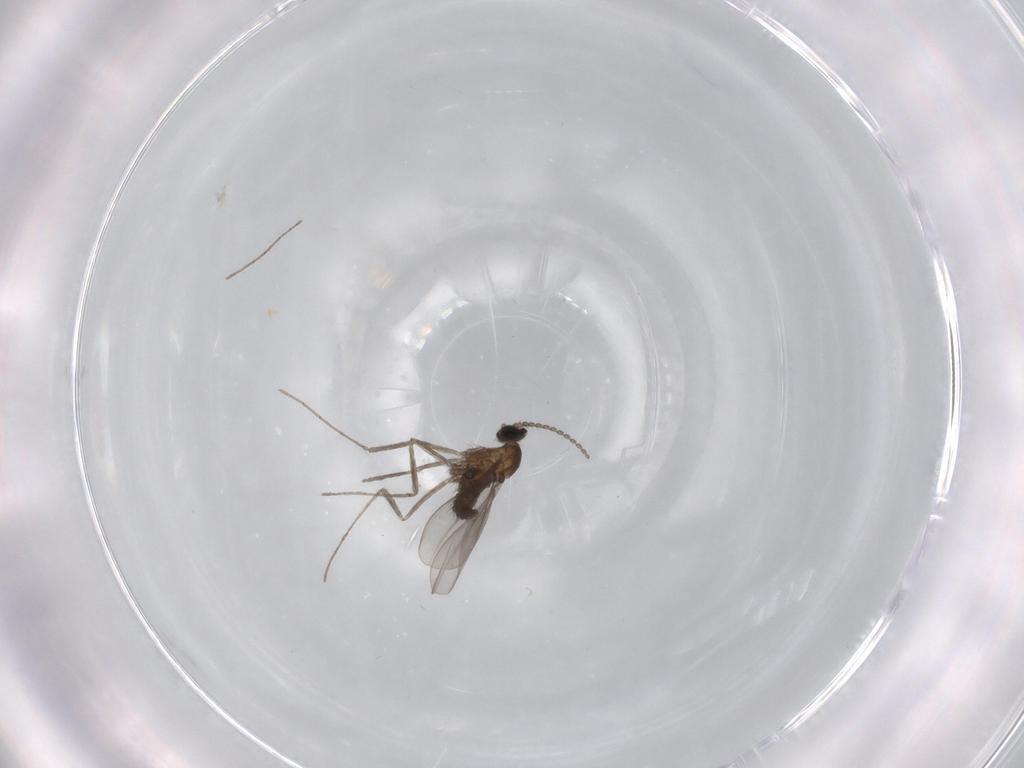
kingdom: Animalia
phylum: Arthropoda
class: Insecta
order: Diptera
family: Cecidomyiidae
